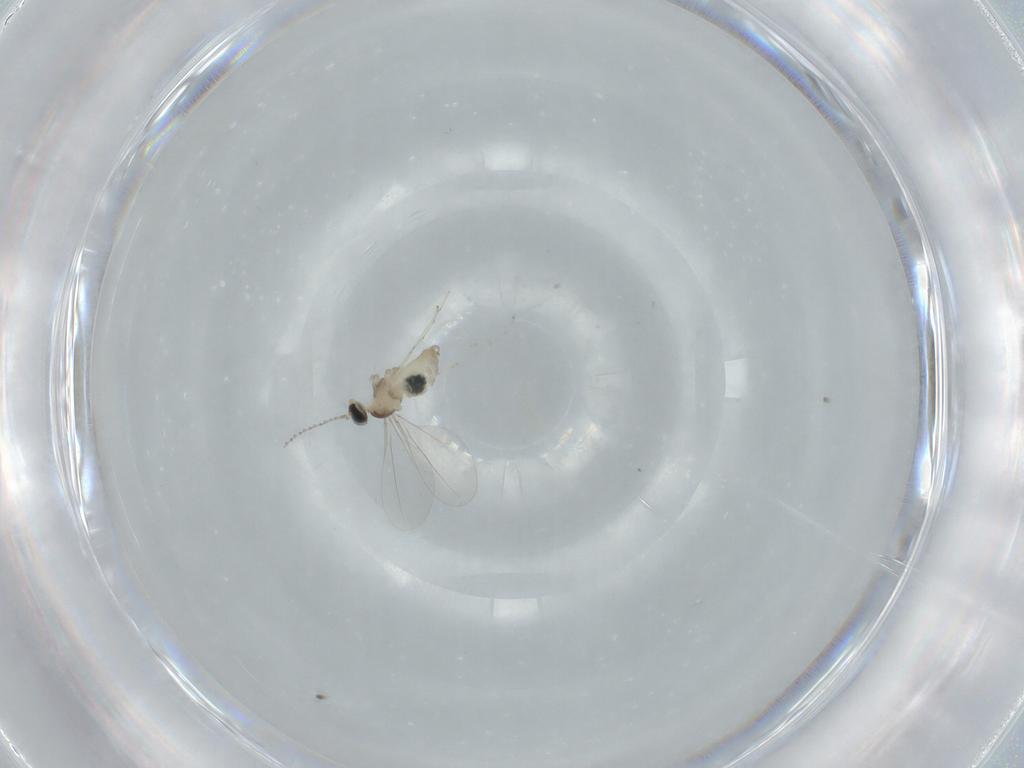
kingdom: Animalia
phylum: Arthropoda
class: Insecta
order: Diptera
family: Cecidomyiidae
